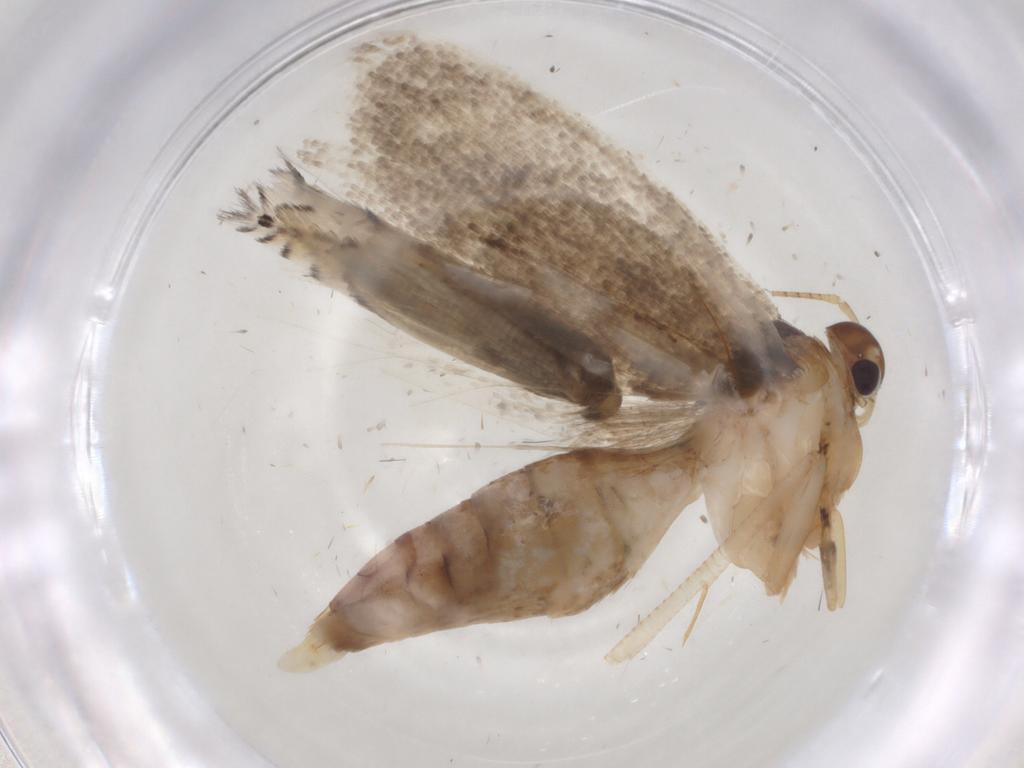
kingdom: Animalia
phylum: Arthropoda
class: Insecta
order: Lepidoptera
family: Gelechiidae
